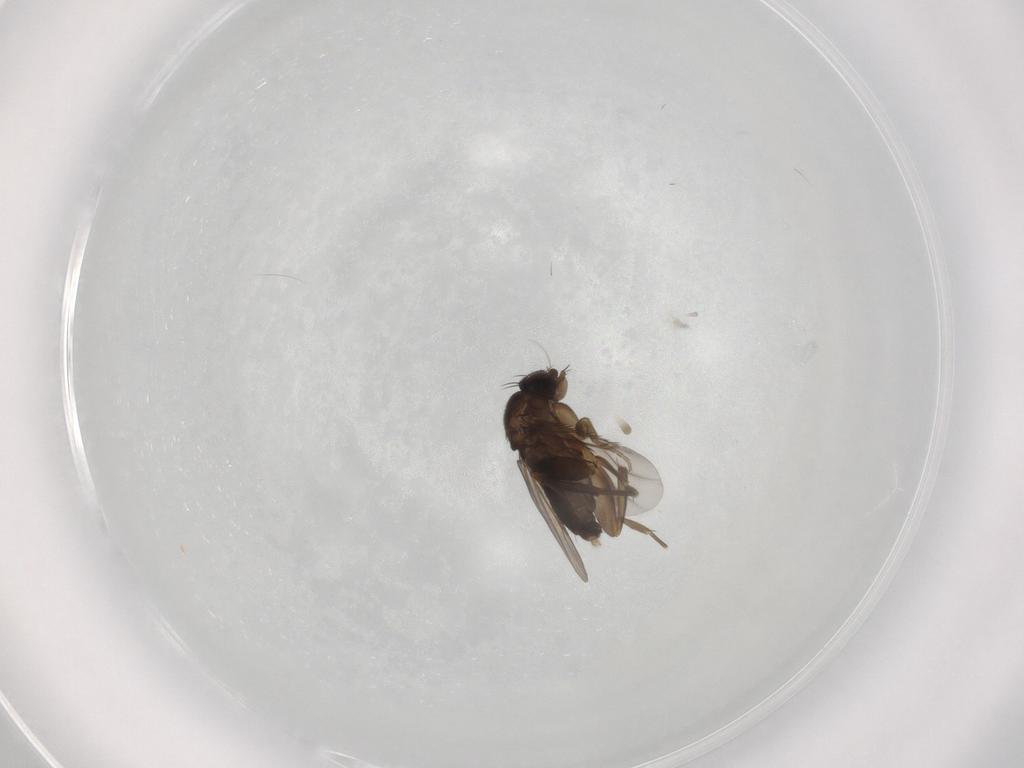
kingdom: Animalia
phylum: Arthropoda
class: Insecta
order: Diptera
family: Phoridae
